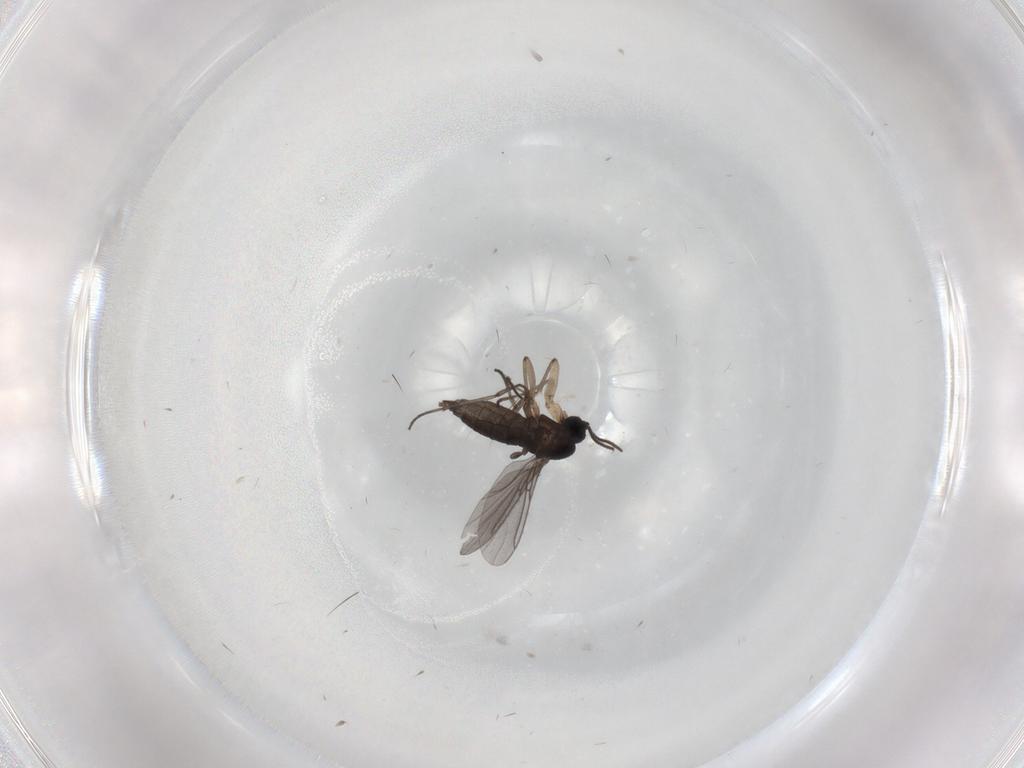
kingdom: Animalia
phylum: Arthropoda
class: Insecta
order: Diptera
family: Sciaridae
